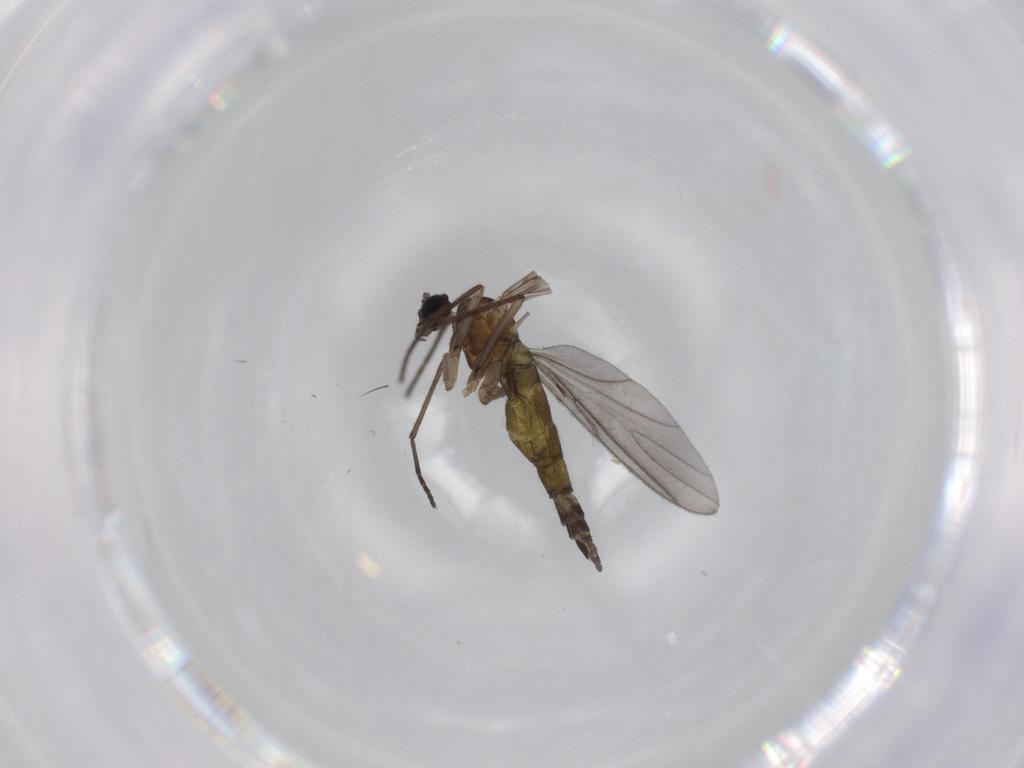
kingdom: Animalia
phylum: Arthropoda
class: Insecta
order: Diptera
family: Sciaridae
